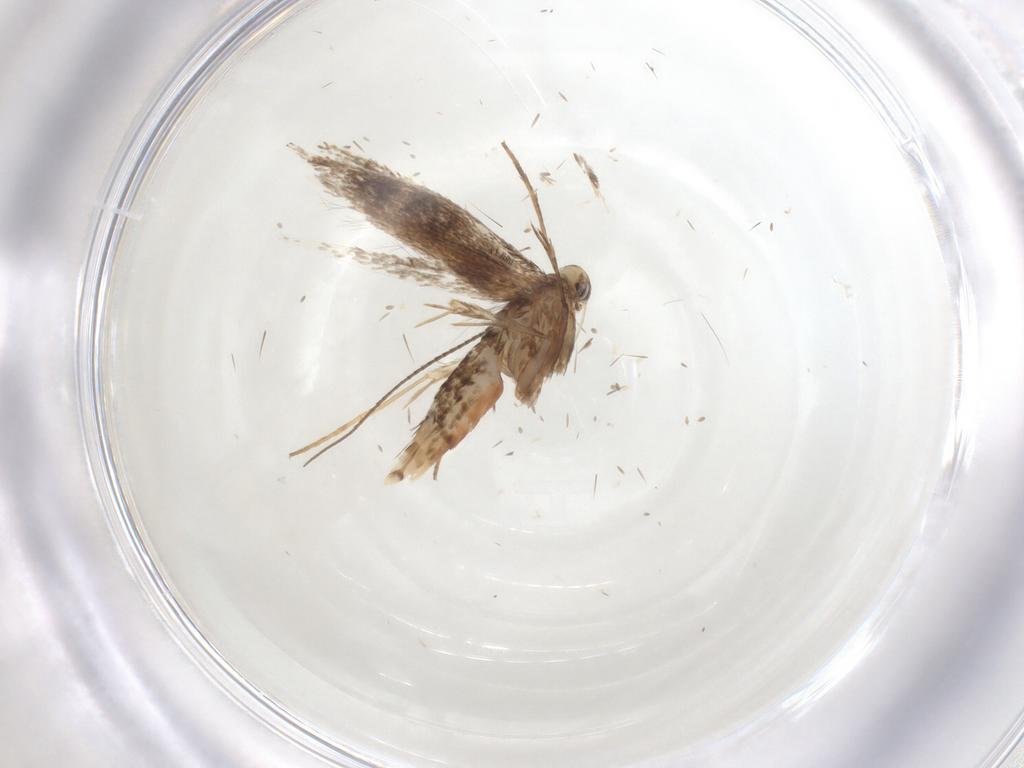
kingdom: Animalia
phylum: Arthropoda
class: Insecta
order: Lepidoptera
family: Gracillariidae
